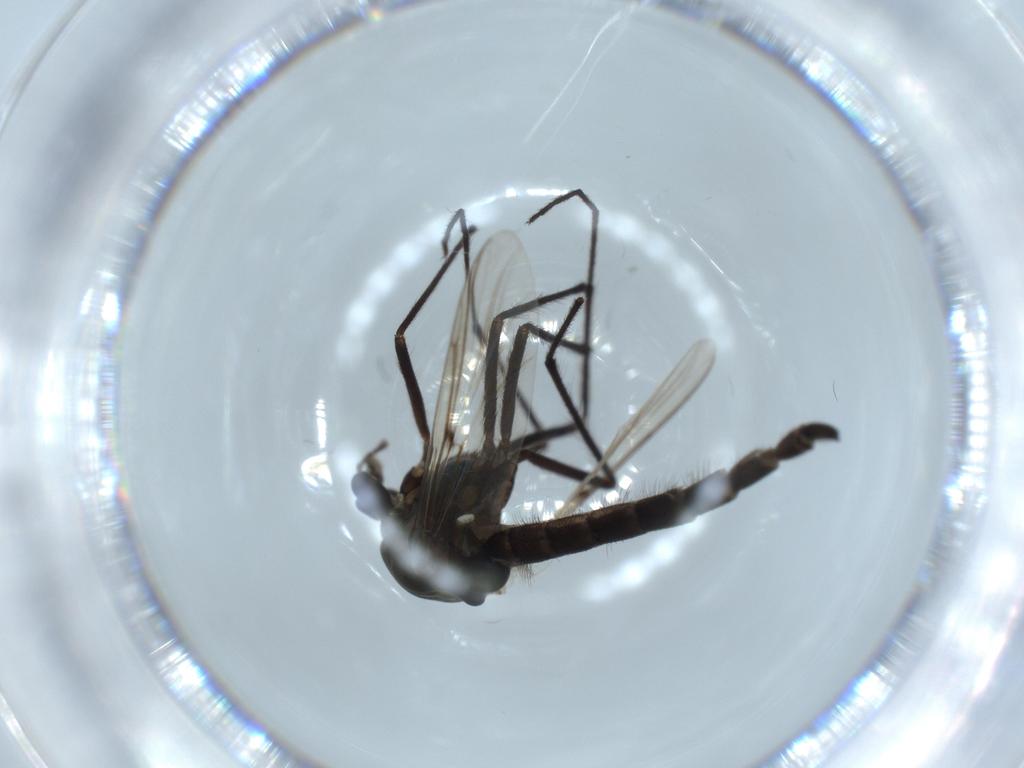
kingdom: Animalia
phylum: Arthropoda
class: Insecta
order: Diptera
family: Chironomidae
